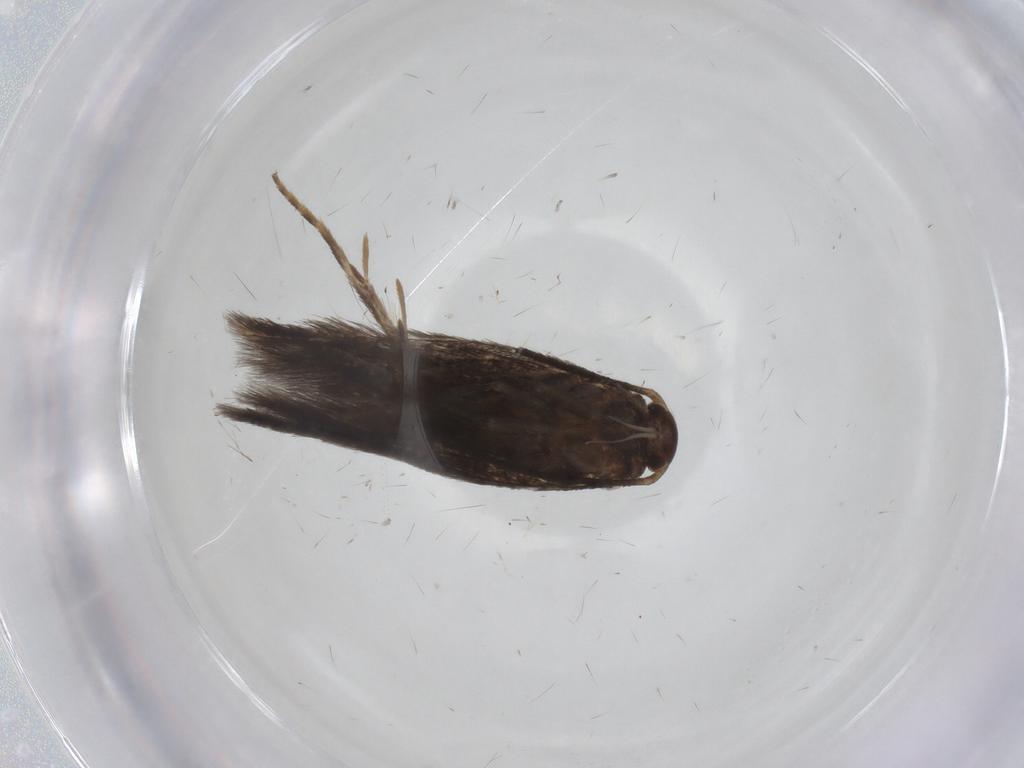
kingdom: Animalia
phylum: Arthropoda
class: Insecta
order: Lepidoptera
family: Elachistidae
